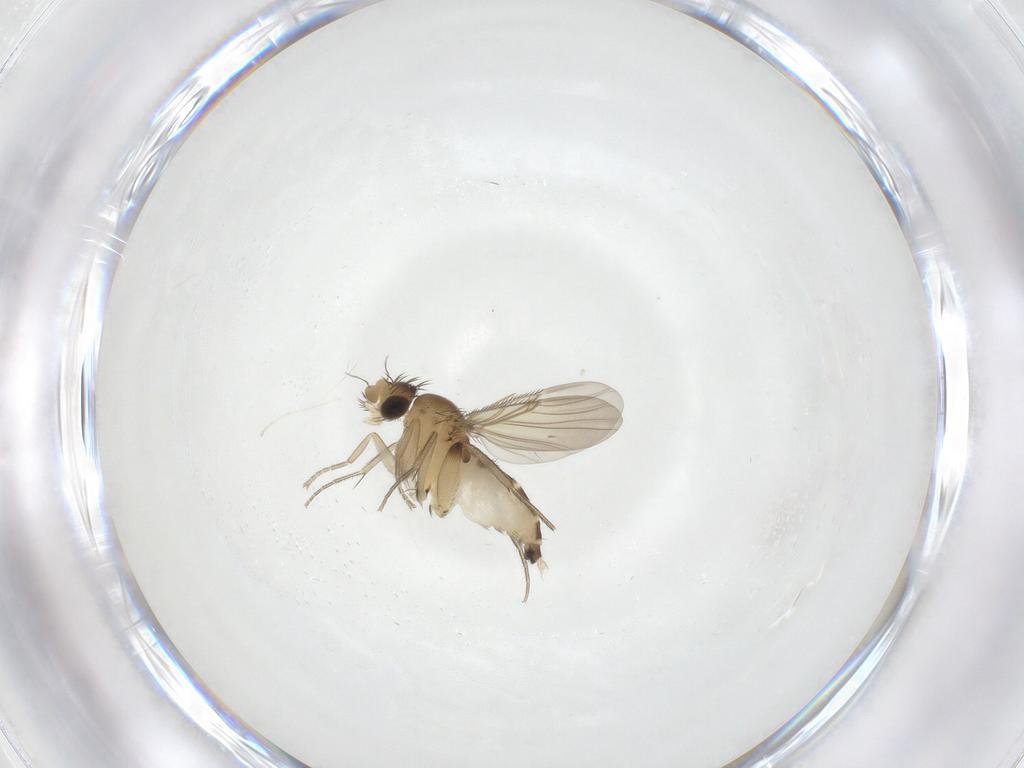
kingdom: Animalia
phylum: Arthropoda
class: Insecta
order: Diptera
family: Phoridae
